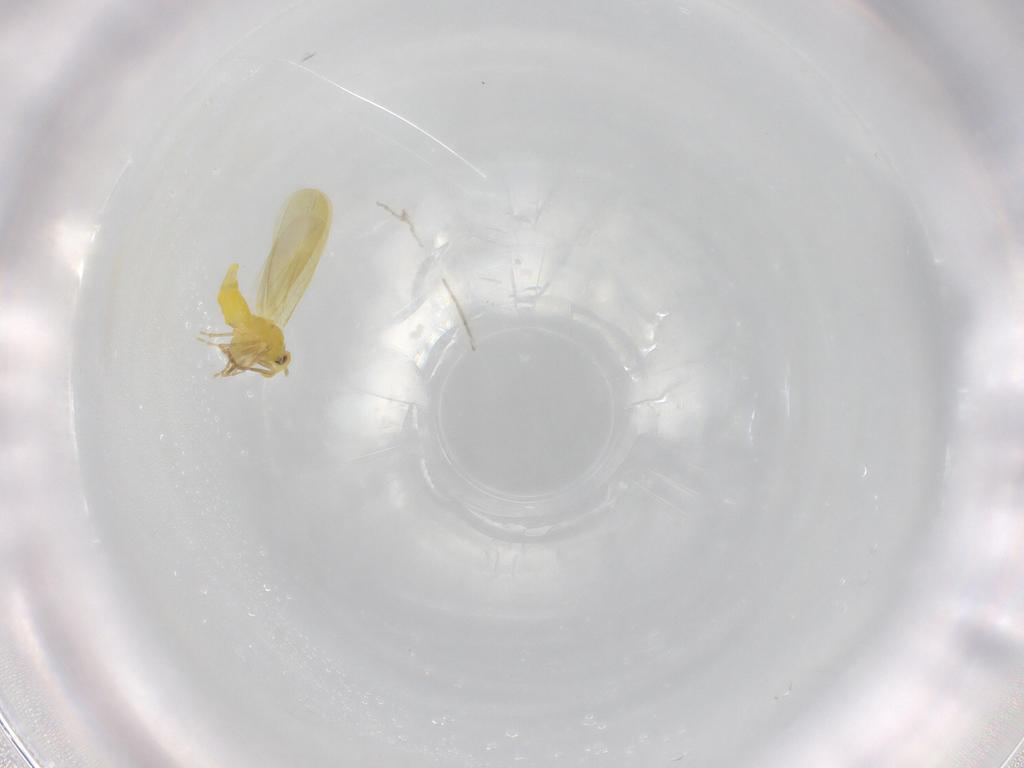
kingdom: Animalia
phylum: Arthropoda
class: Insecta
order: Hemiptera
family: Aleyrodidae
